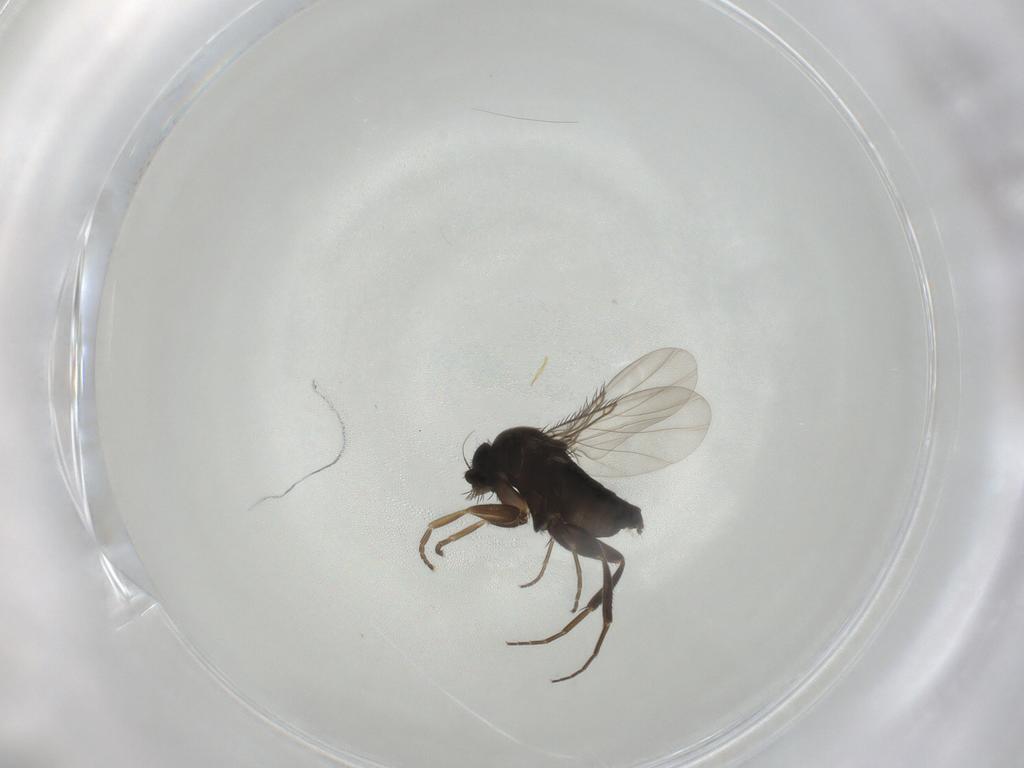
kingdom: Animalia
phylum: Arthropoda
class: Insecta
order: Diptera
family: Phoridae
